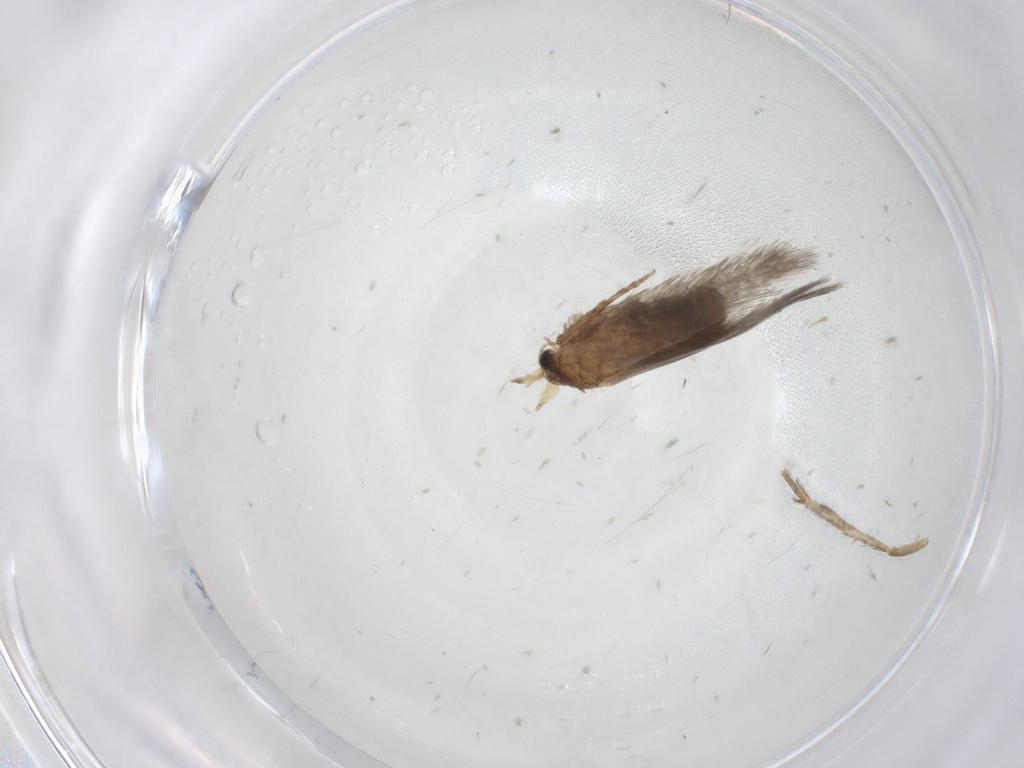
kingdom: Animalia
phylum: Arthropoda
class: Insecta
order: Lepidoptera
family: Nepticulidae
